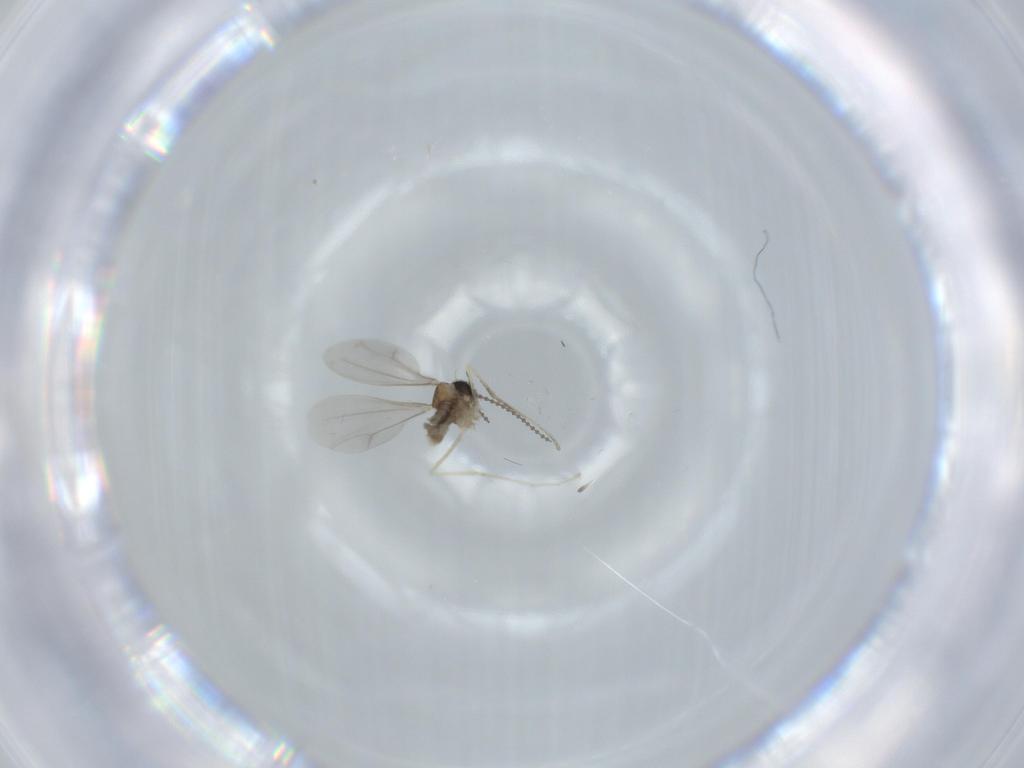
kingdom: Animalia
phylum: Arthropoda
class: Insecta
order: Diptera
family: Cecidomyiidae
